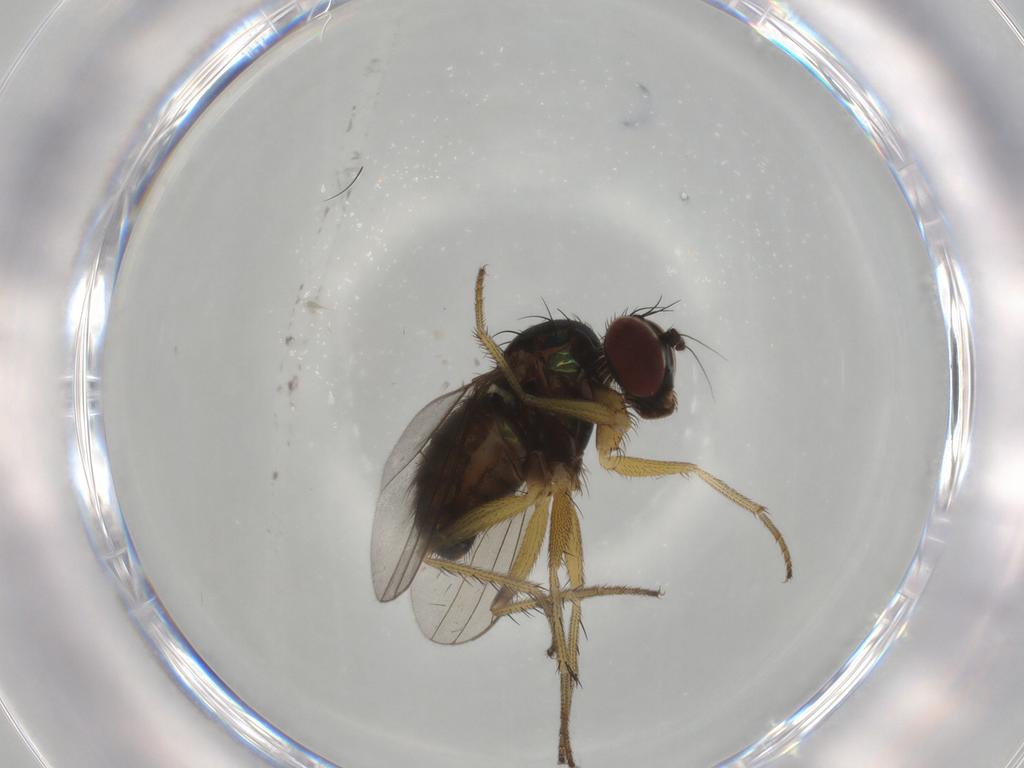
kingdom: Animalia
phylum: Arthropoda
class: Insecta
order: Diptera
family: Dolichopodidae
